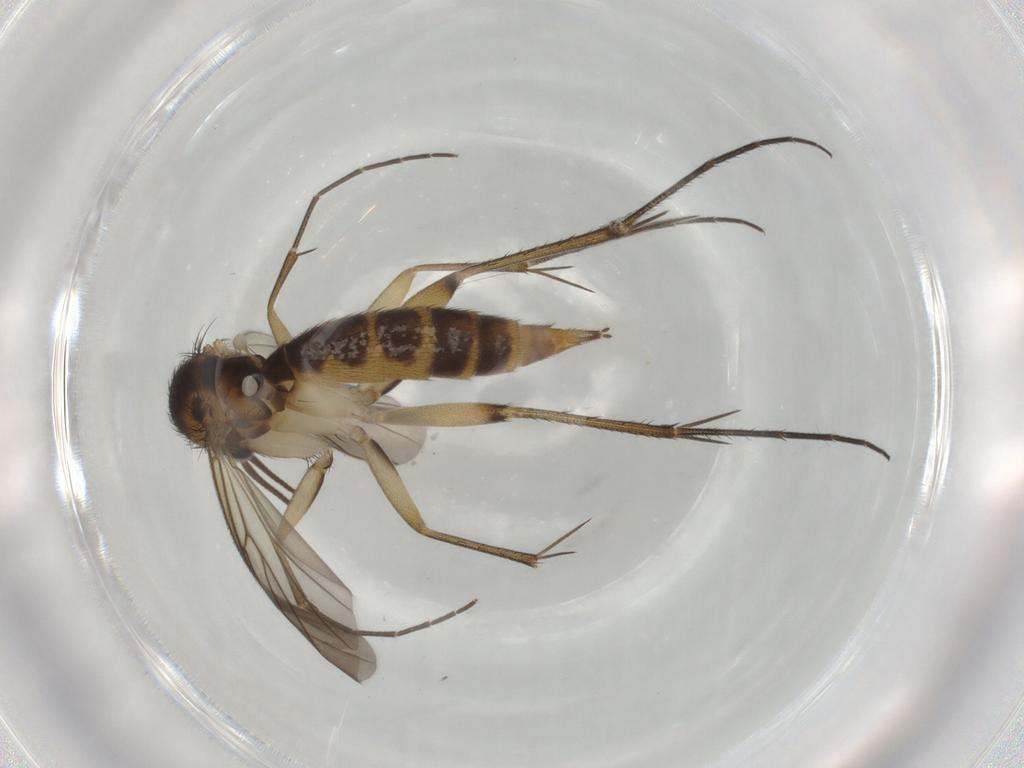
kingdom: Animalia
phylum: Arthropoda
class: Insecta
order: Diptera
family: Mycetophilidae
